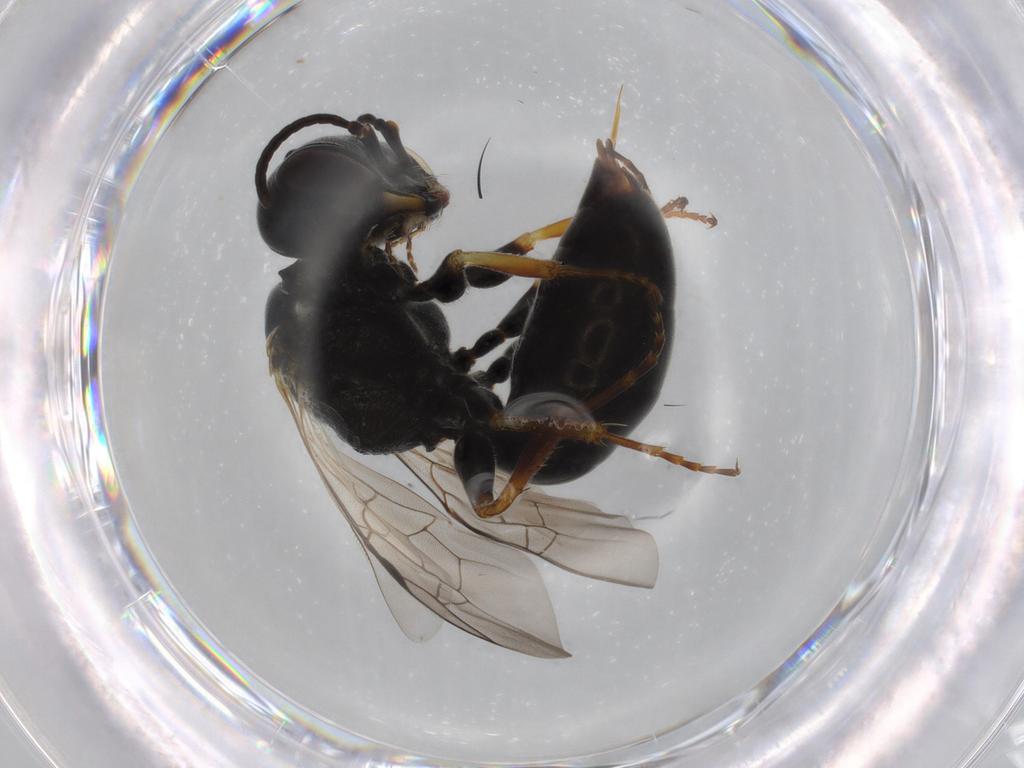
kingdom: Animalia
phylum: Arthropoda
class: Insecta
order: Hymenoptera
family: Crabronidae
